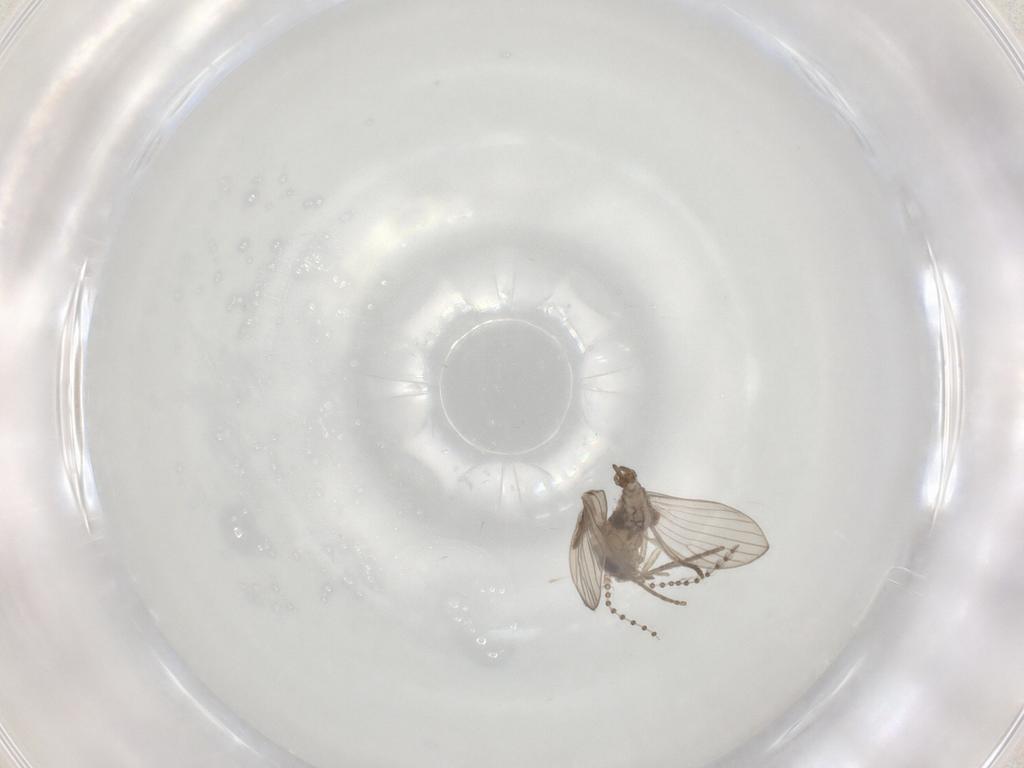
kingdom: Animalia
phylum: Arthropoda
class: Insecta
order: Diptera
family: Psychodidae
